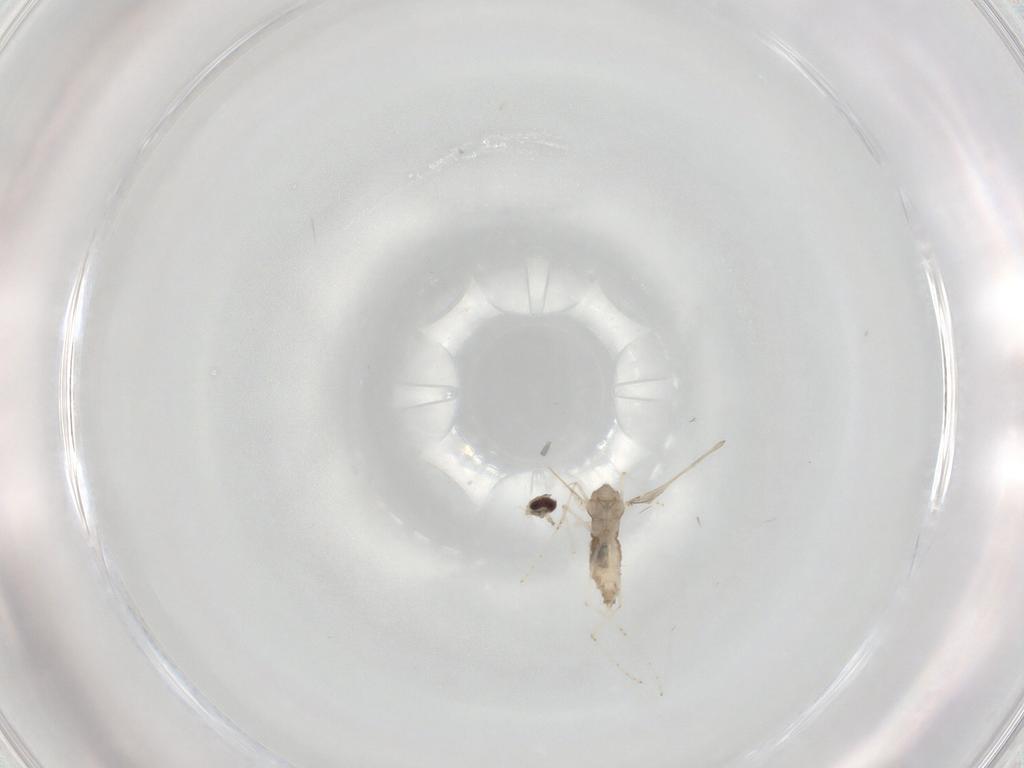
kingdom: Animalia
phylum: Arthropoda
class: Insecta
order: Diptera
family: Cecidomyiidae
